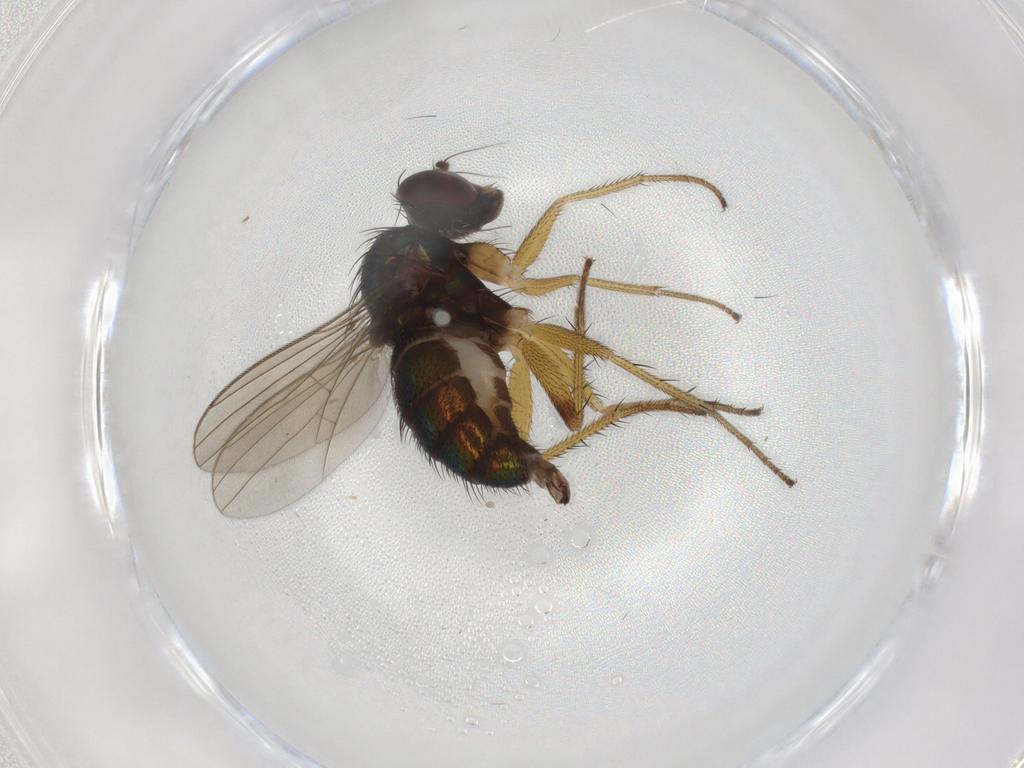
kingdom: Animalia
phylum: Arthropoda
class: Insecta
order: Diptera
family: Dolichopodidae
